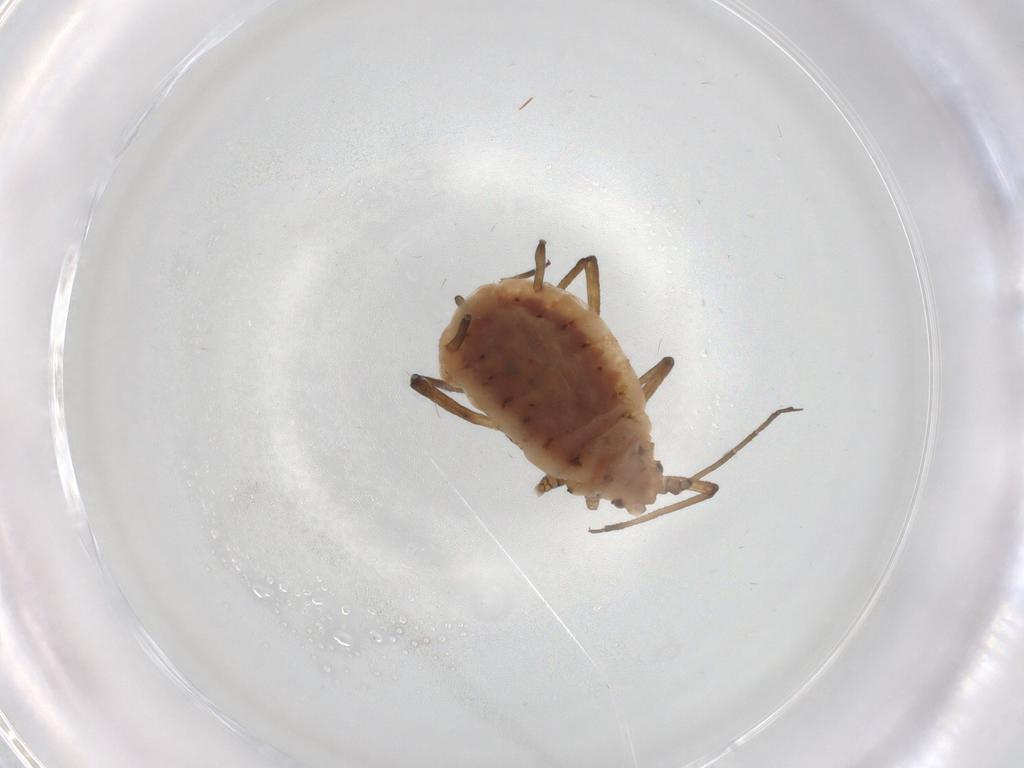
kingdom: Animalia
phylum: Arthropoda
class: Insecta
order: Hemiptera
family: Aphididae
